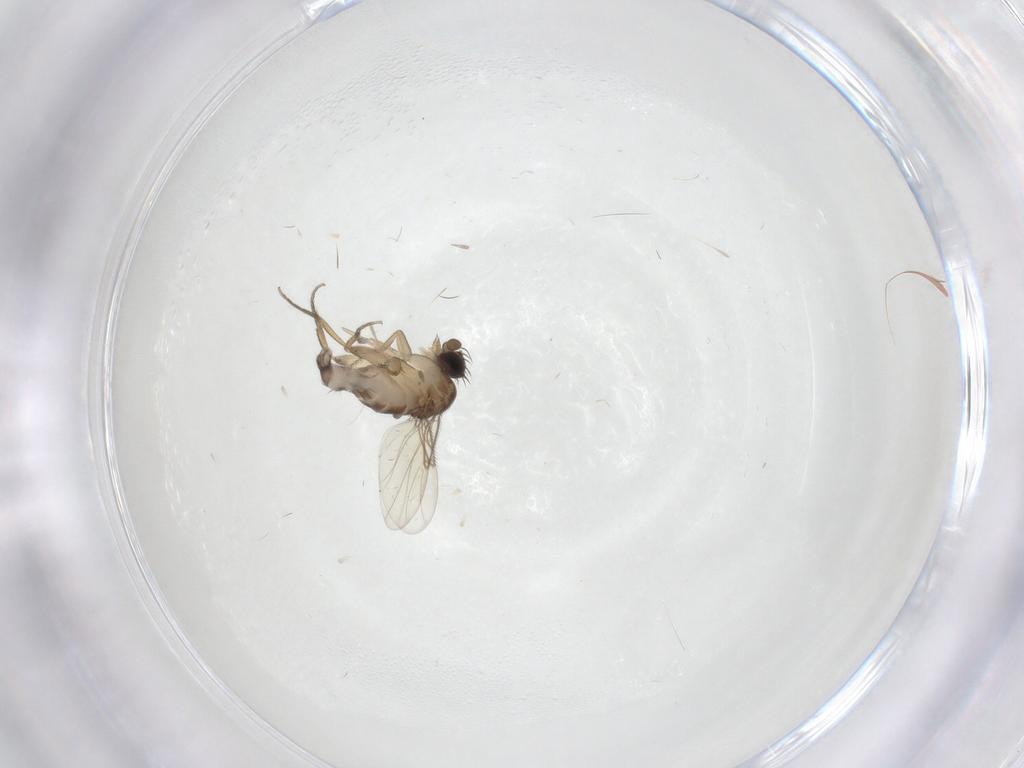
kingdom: Animalia
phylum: Arthropoda
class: Insecta
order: Diptera
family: Phoridae
